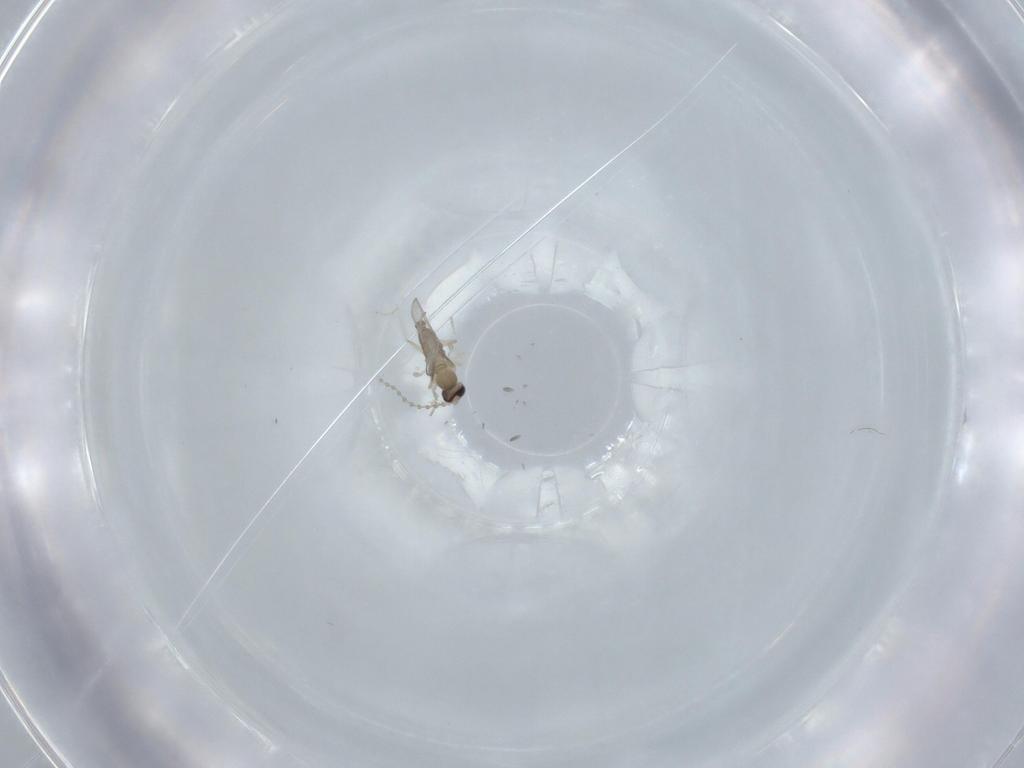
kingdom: Animalia
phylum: Arthropoda
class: Insecta
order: Diptera
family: Cecidomyiidae
